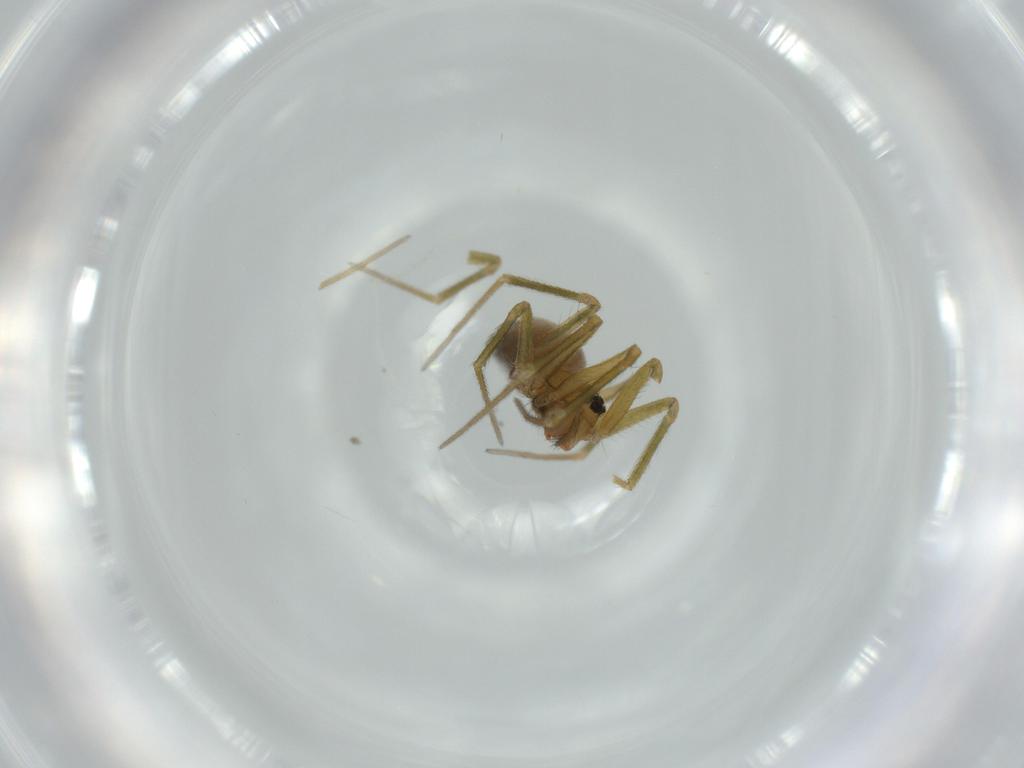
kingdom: Animalia
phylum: Arthropoda
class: Arachnida
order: Araneae
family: Linyphiidae
